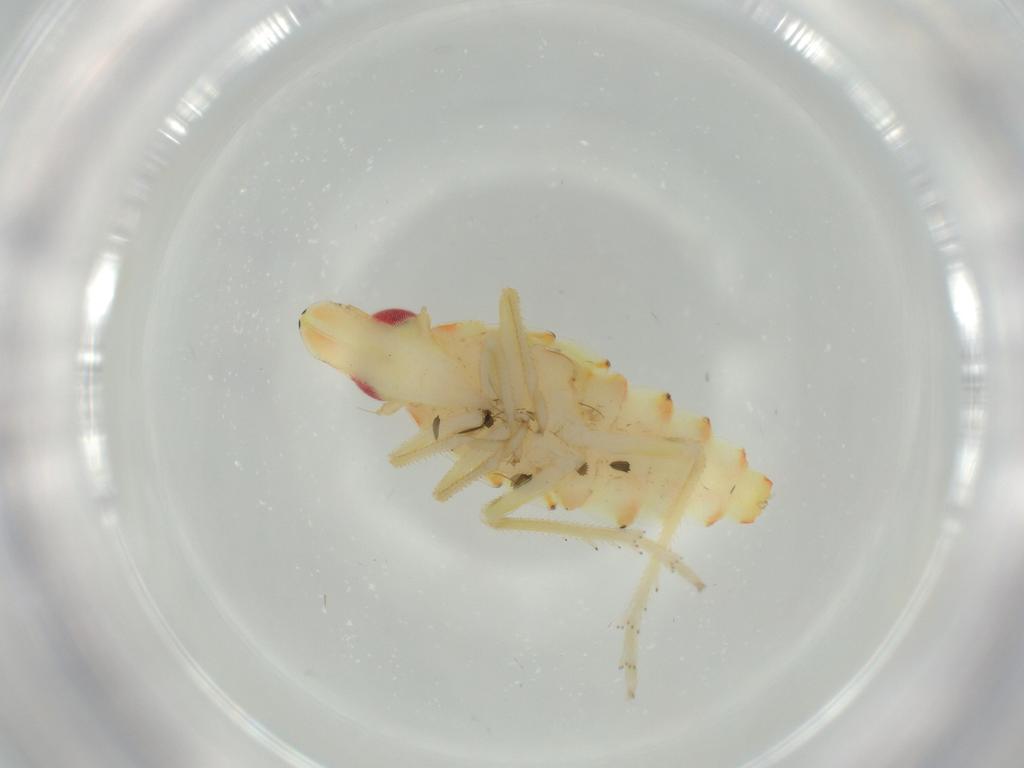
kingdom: Animalia
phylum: Arthropoda
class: Insecta
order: Hemiptera
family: Tropiduchidae
